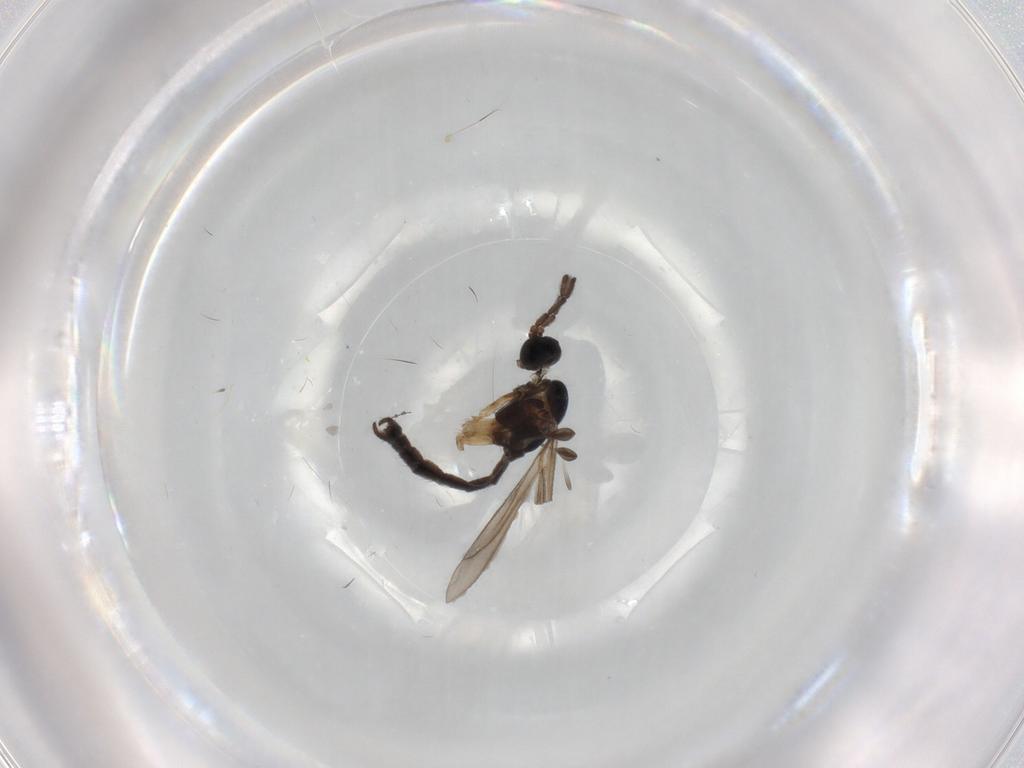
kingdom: Animalia
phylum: Arthropoda
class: Insecta
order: Diptera
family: Sciaridae
